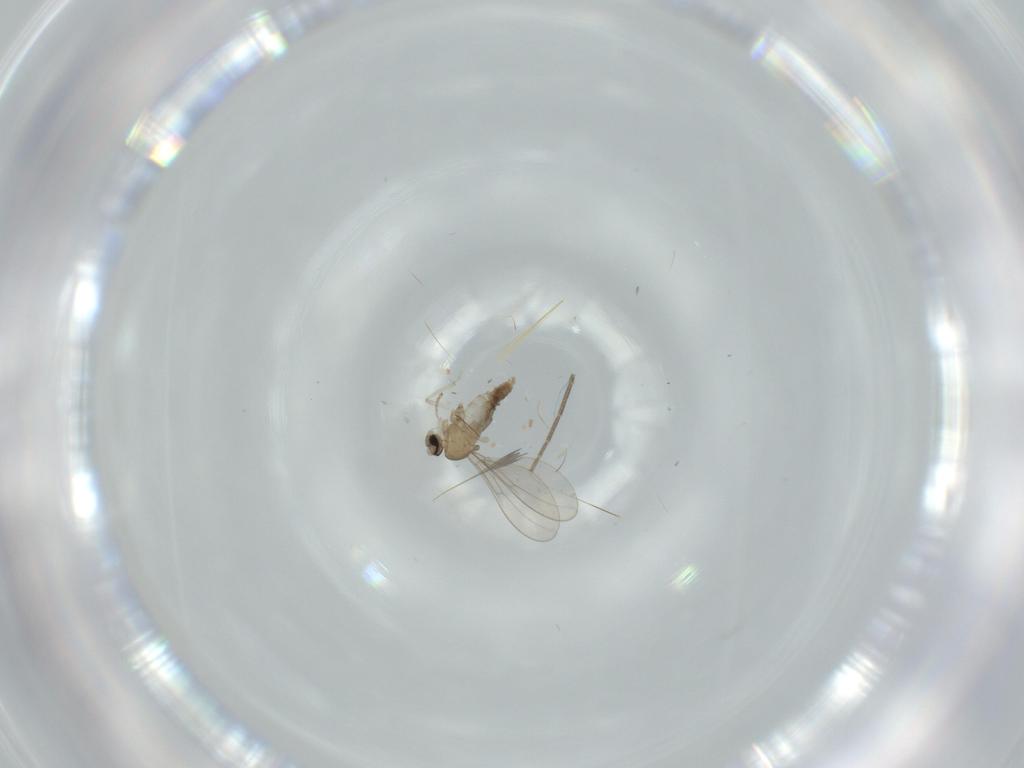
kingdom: Animalia
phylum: Arthropoda
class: Insecta
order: Diptera
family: Cecidomyiidae
